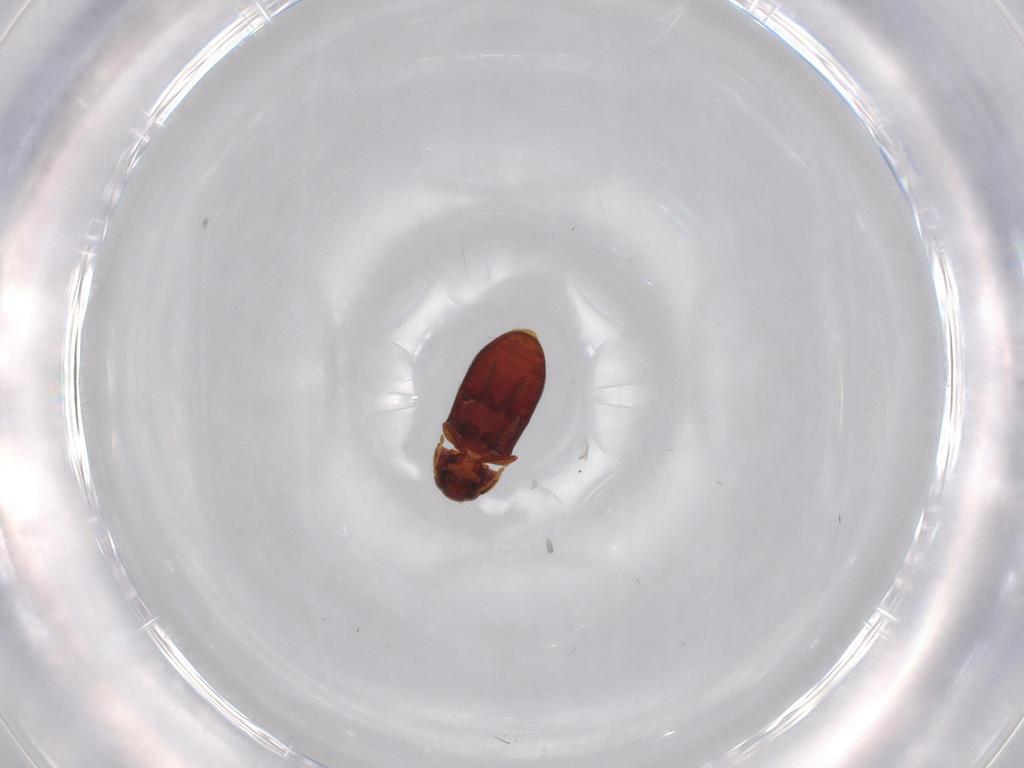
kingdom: Animalia
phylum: Arthropoda
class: Insecta
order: Coleoptera
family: Ptinidae
